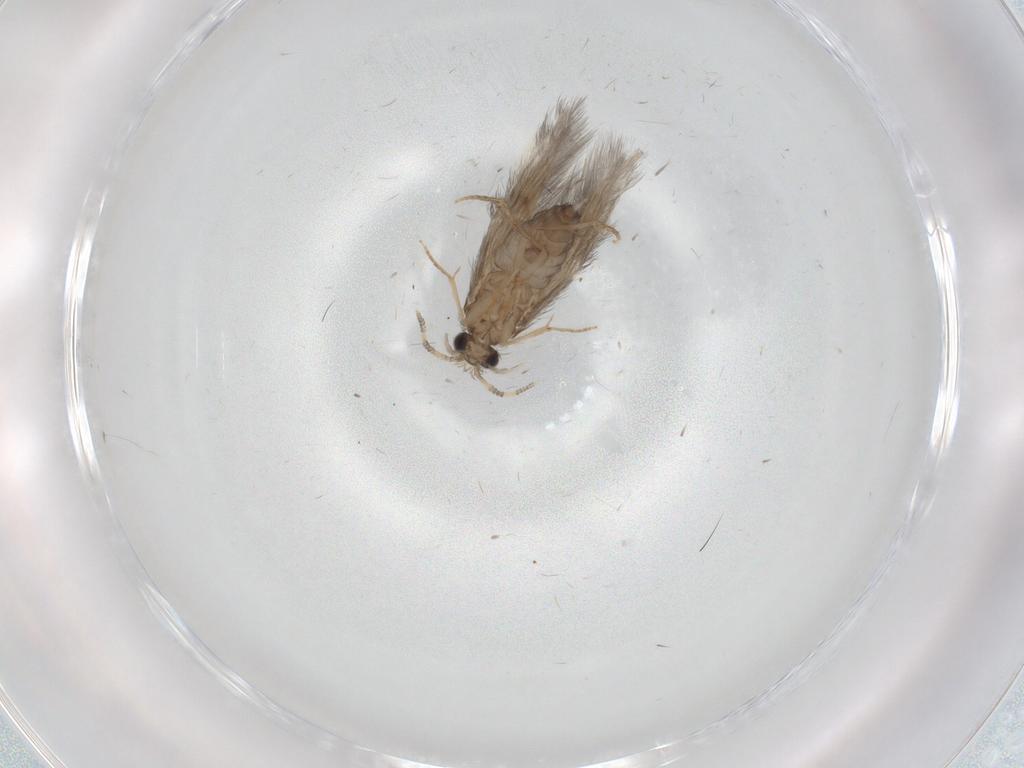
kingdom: Animalia
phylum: Arthropoda
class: Insecta
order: Trichoptera
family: Hydroptilidae
